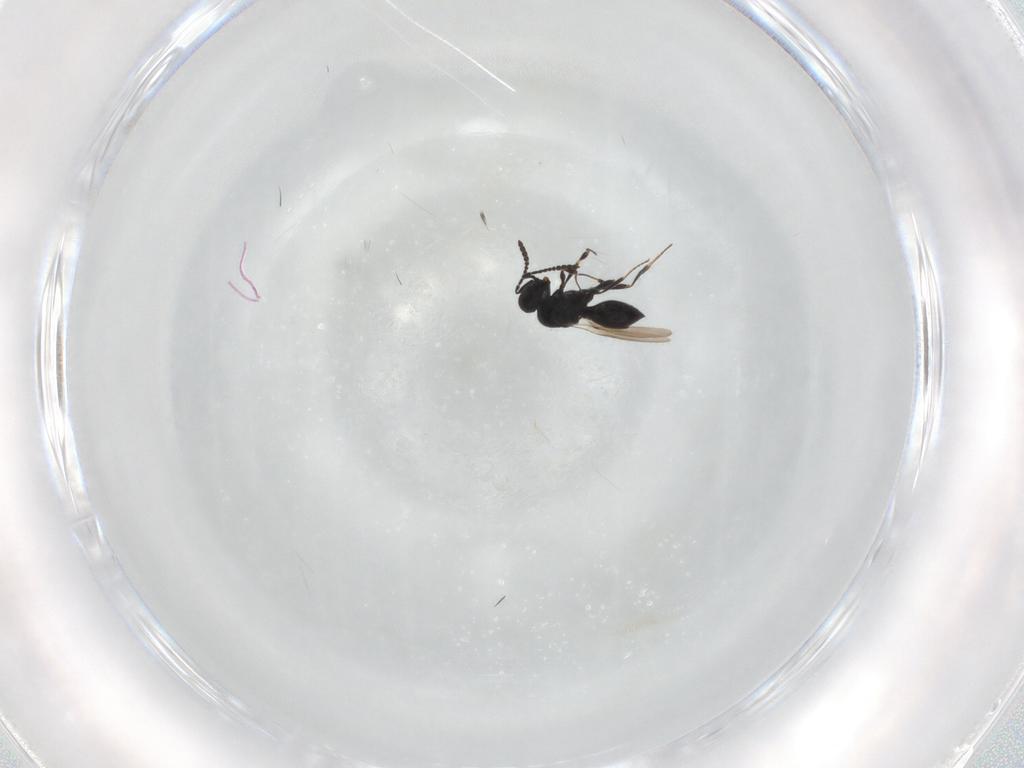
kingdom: Animalia
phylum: Arthropoda
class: Insecta
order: Hymenoptera
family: Scelionidae
